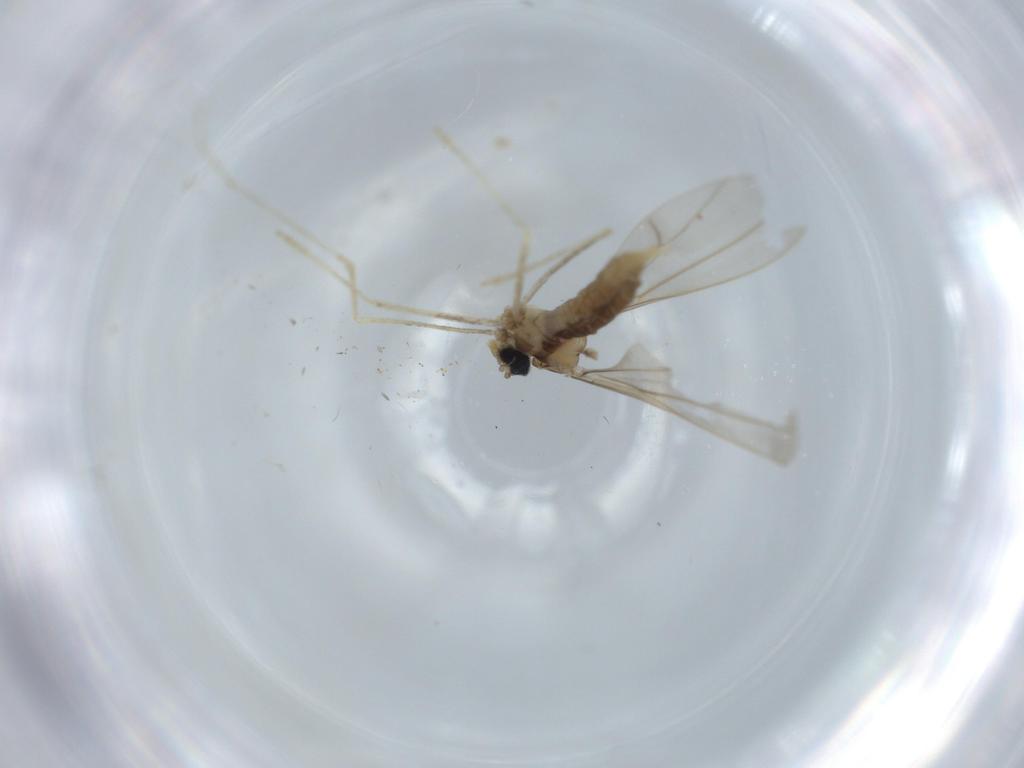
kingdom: Animalia
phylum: Arthropoda
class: Insecta
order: Diptera
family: Cecidomyiidae
